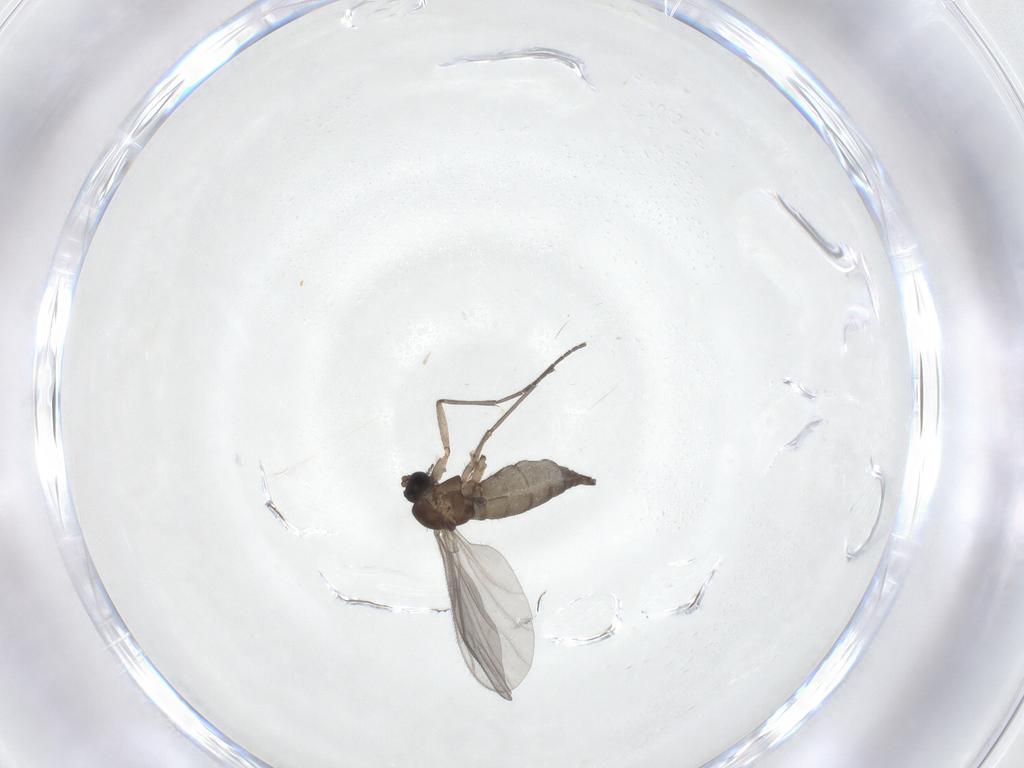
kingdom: Animalia
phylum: Arthropoda
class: Insecta
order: Diptera
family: Sciaridae
